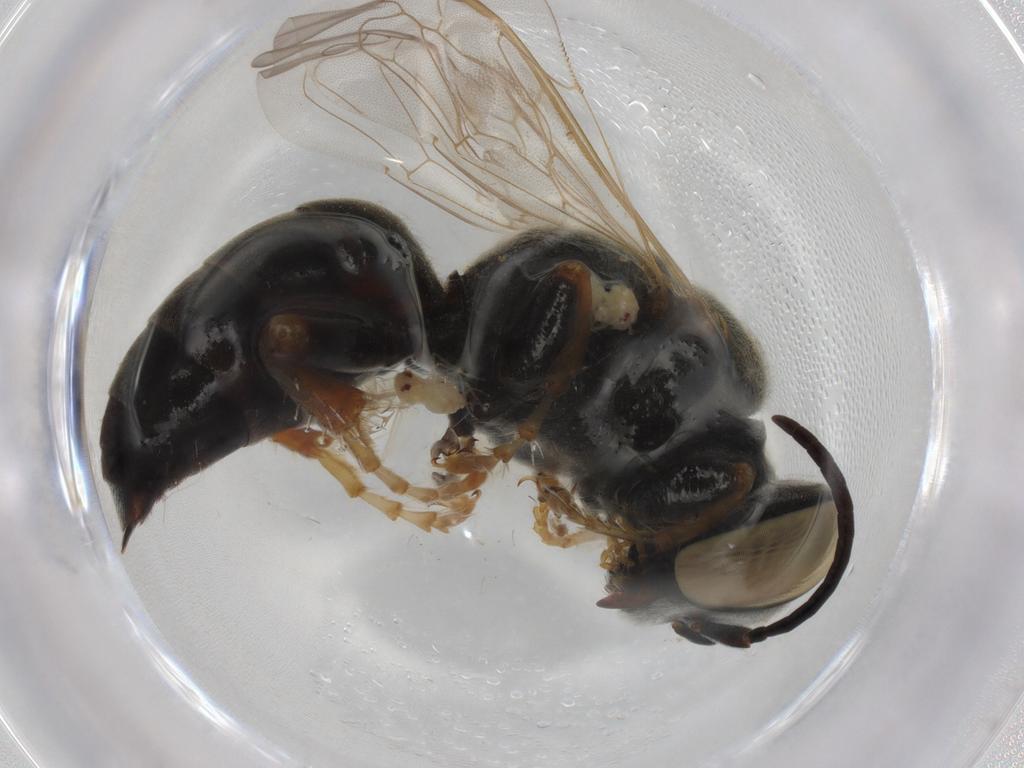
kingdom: Animalia
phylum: Arthropoda
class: Insecta
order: Hymenoptera
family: Crabronidae
